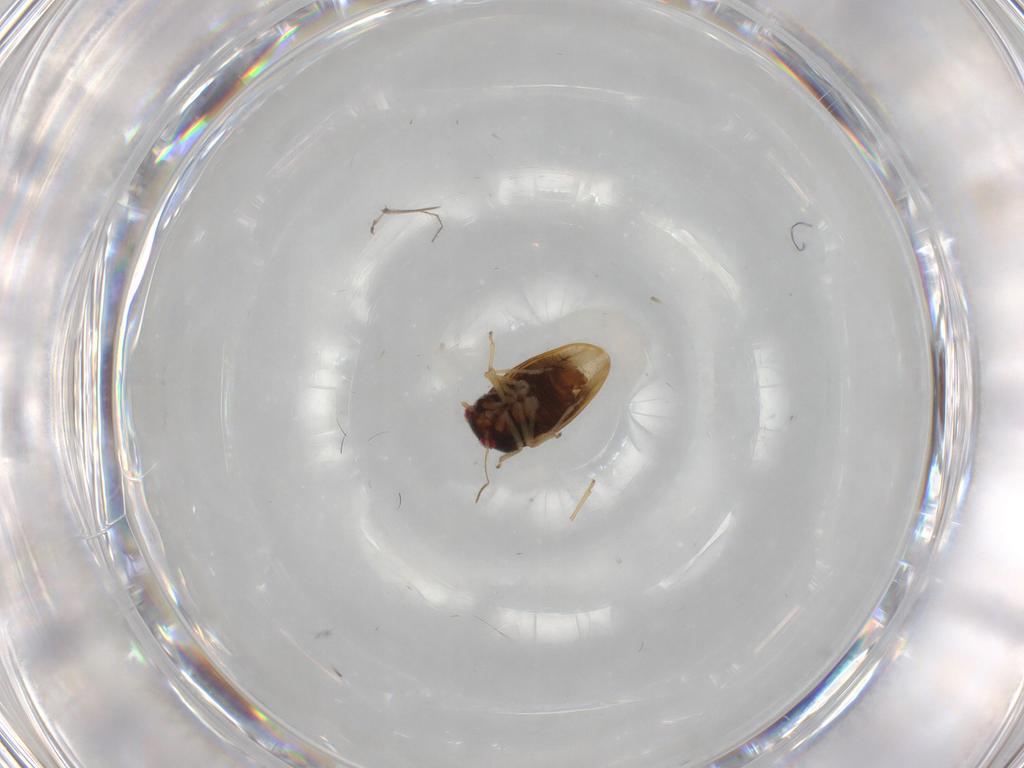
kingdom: Animalia
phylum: Arthropoda
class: Insecta
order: Hemiptera
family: Schizopteridae
